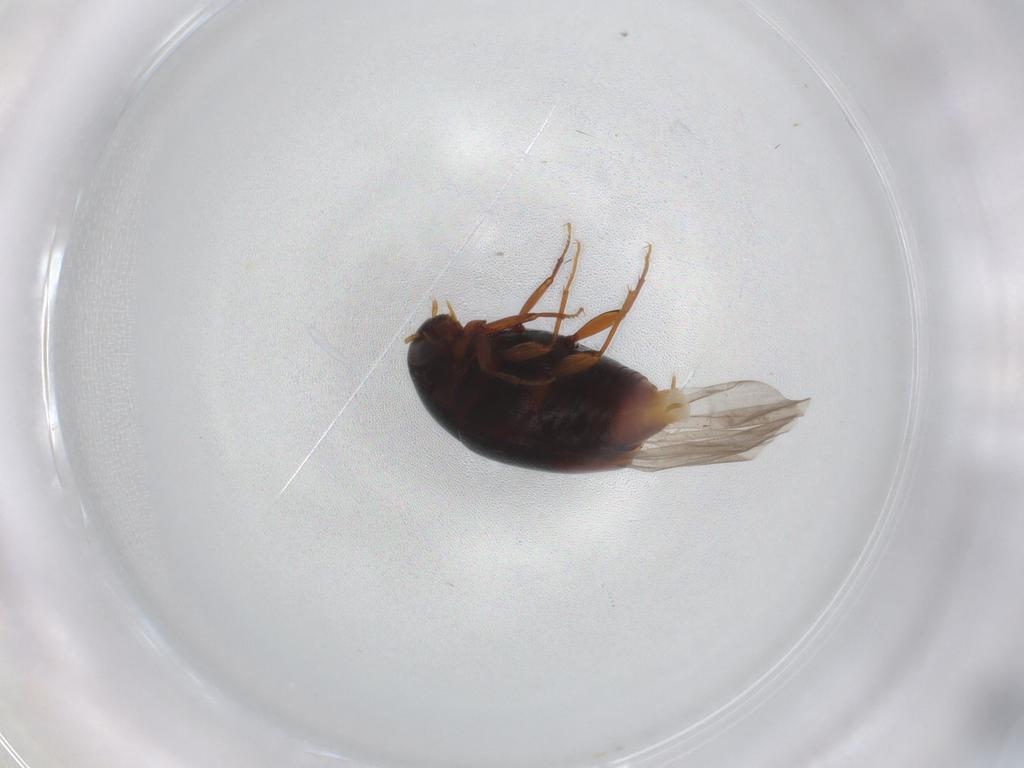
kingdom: Animalia
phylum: Arthropoda
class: Insecta
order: Coleoptera
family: Staphylinidae
